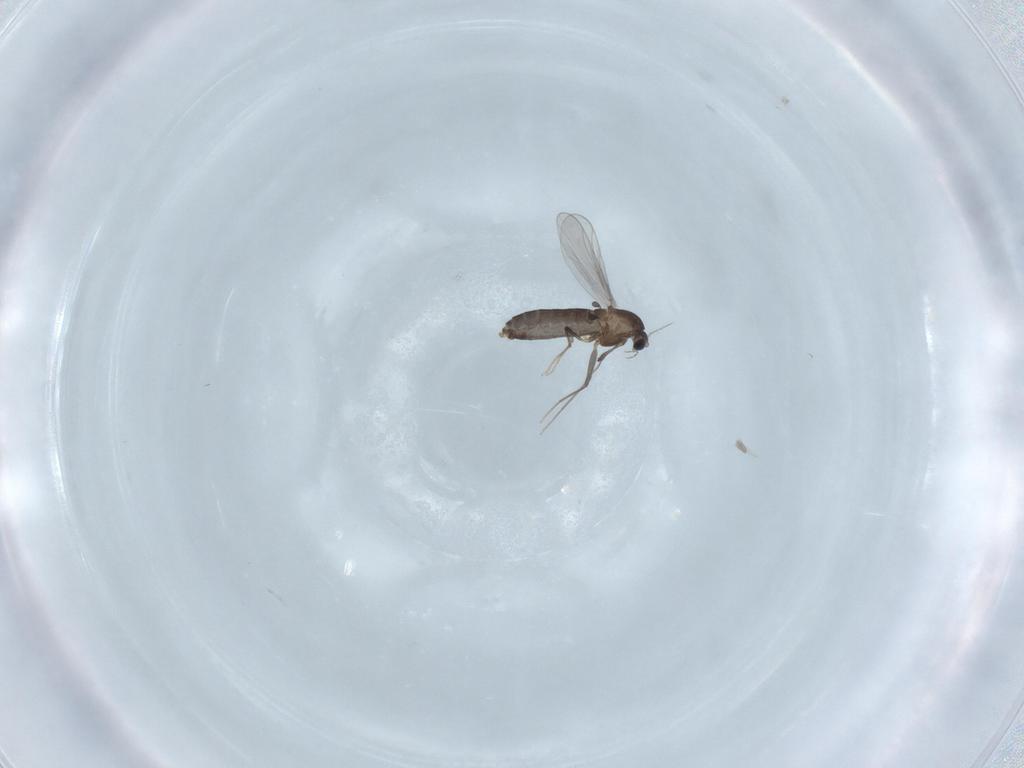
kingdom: Animalia
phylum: Arthropoda
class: Insecta
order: Diptera
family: Chironomidae
